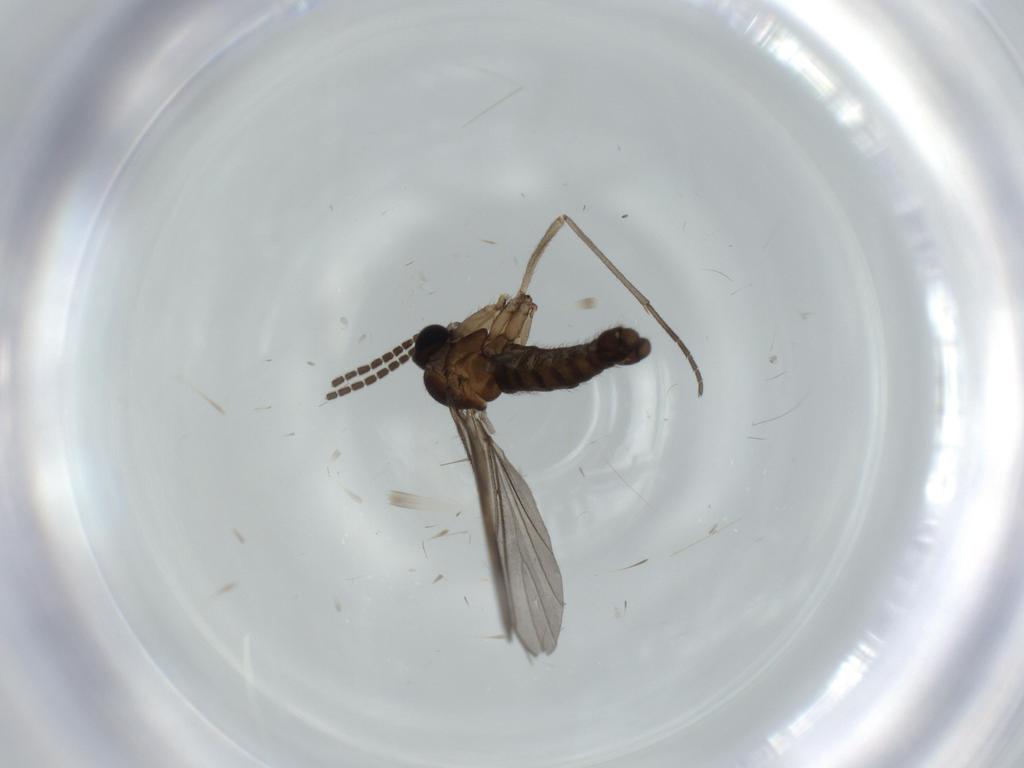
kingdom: Animalia
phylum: Arthropoda
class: Insecta
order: Diptera
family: Sciaridae
